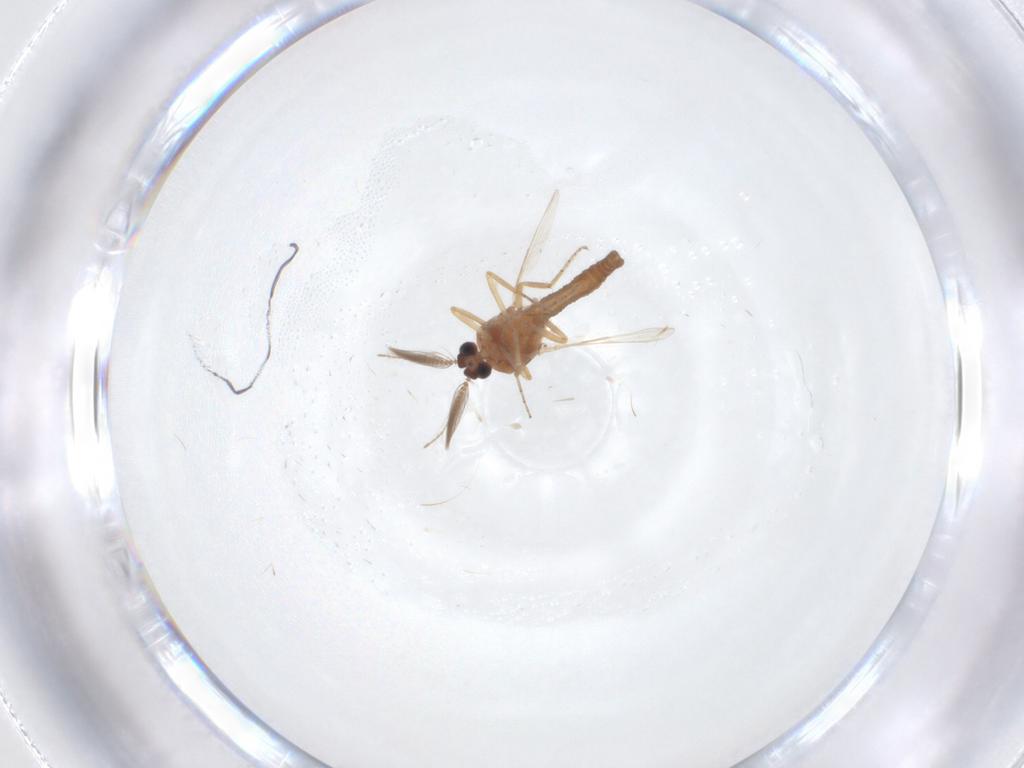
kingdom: Animalia
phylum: Arthropoda
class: Insecta
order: Diptera
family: Ceratopogonidae
